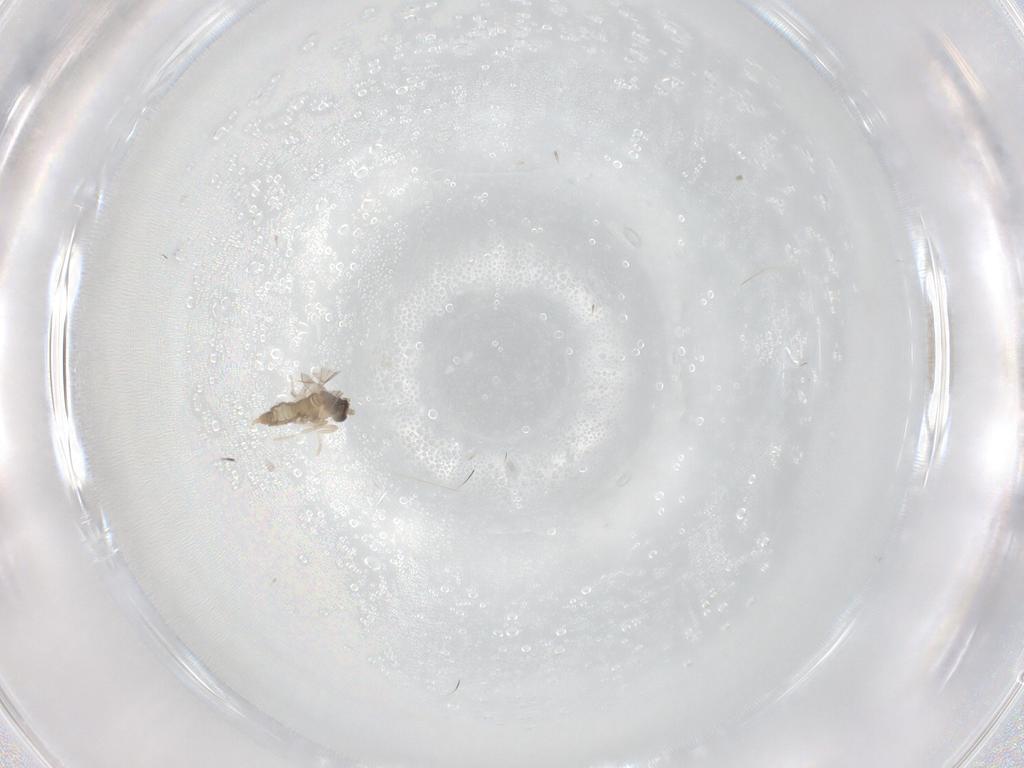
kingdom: Animalia
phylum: Arthropoda
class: Insecta
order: Diptera
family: Cecidomyiidae
